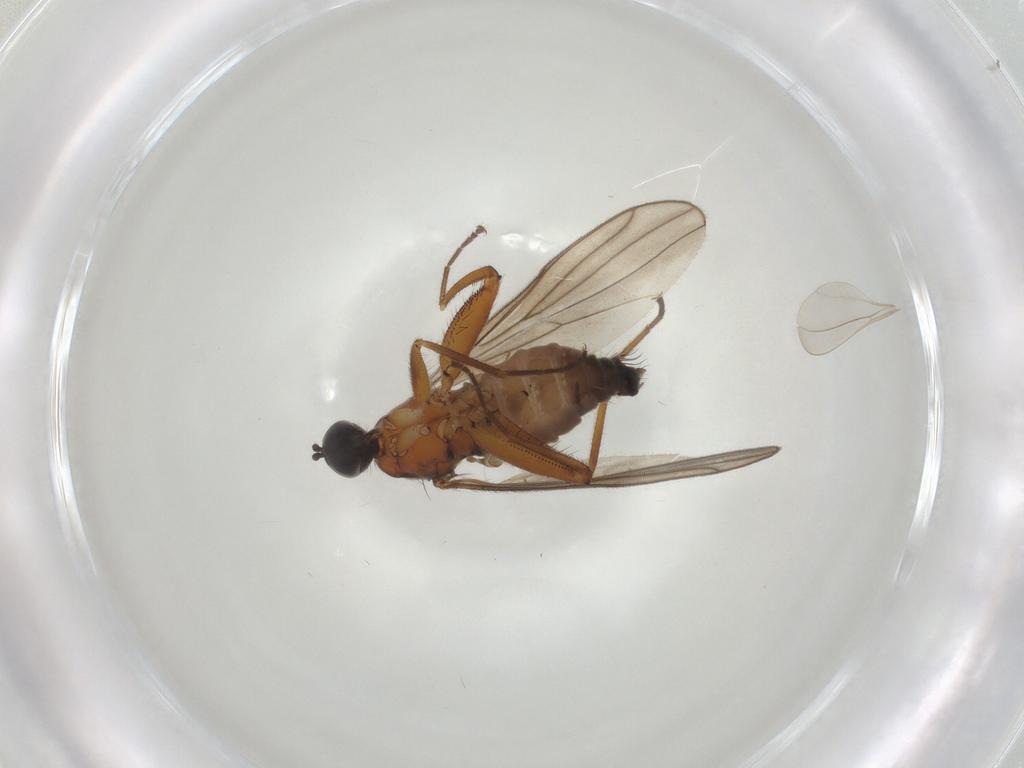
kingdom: Animalia
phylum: Arthropoda
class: Insecta
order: Diptera
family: Hybotidae
